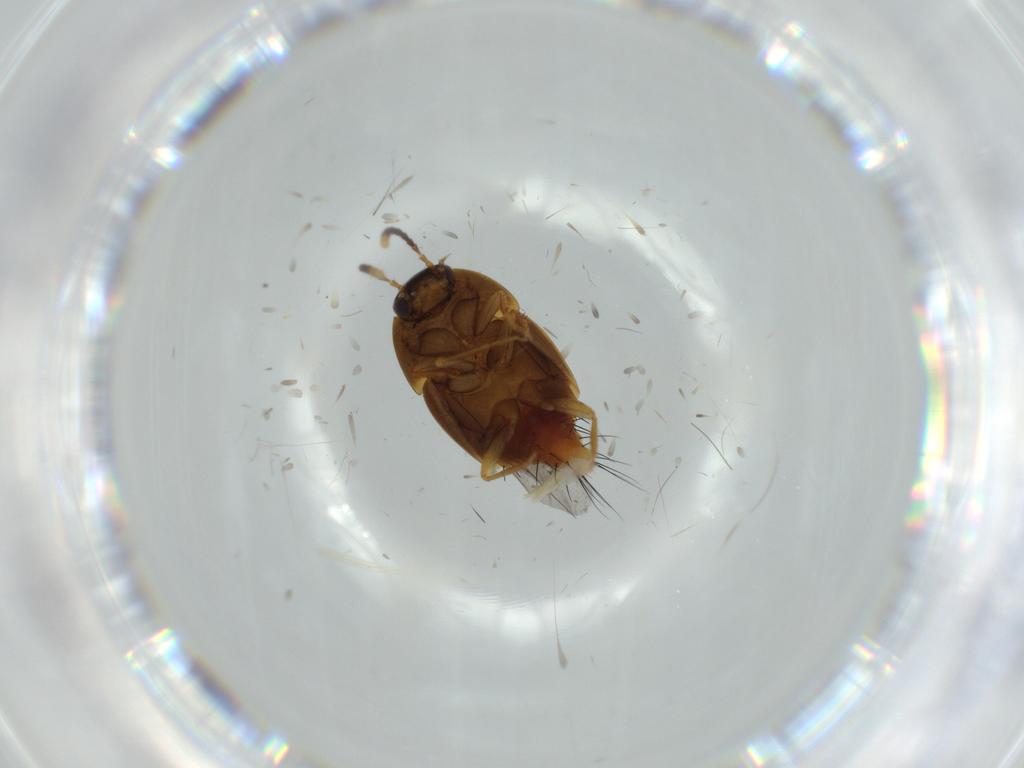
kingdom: Animalia
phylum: Arthropoda
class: Insecta
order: Coleoptera
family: Staphylinidae
